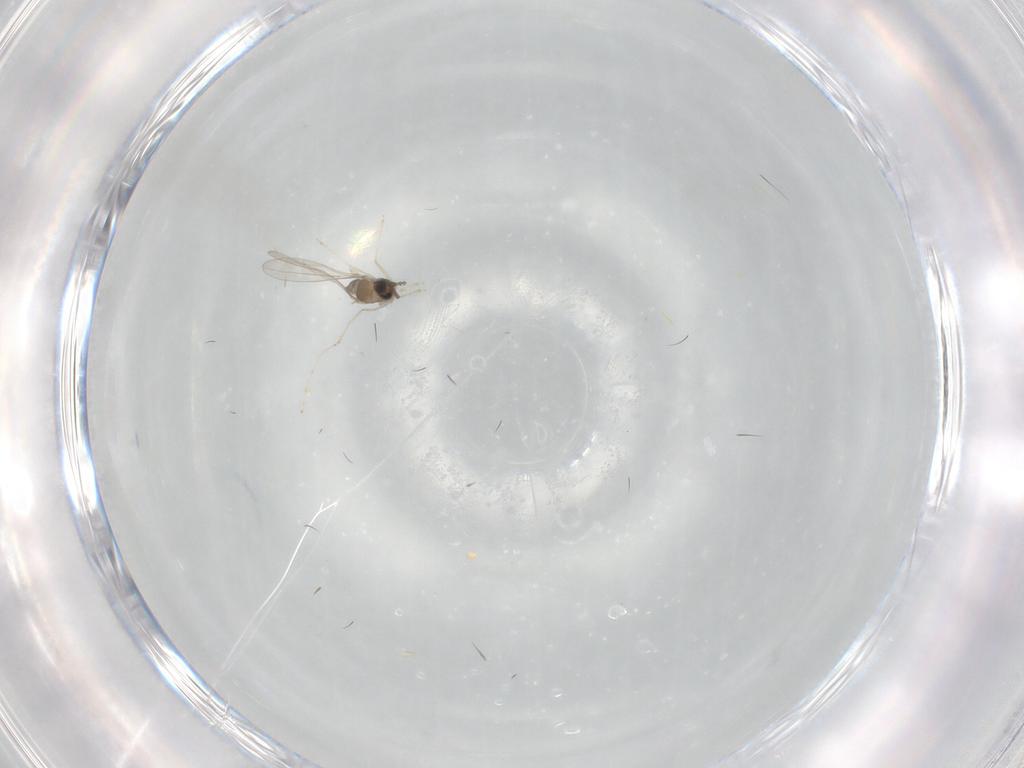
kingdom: Animalia
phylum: Arthropoda
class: Insecta
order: Diptera
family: Cecidomyiidae
